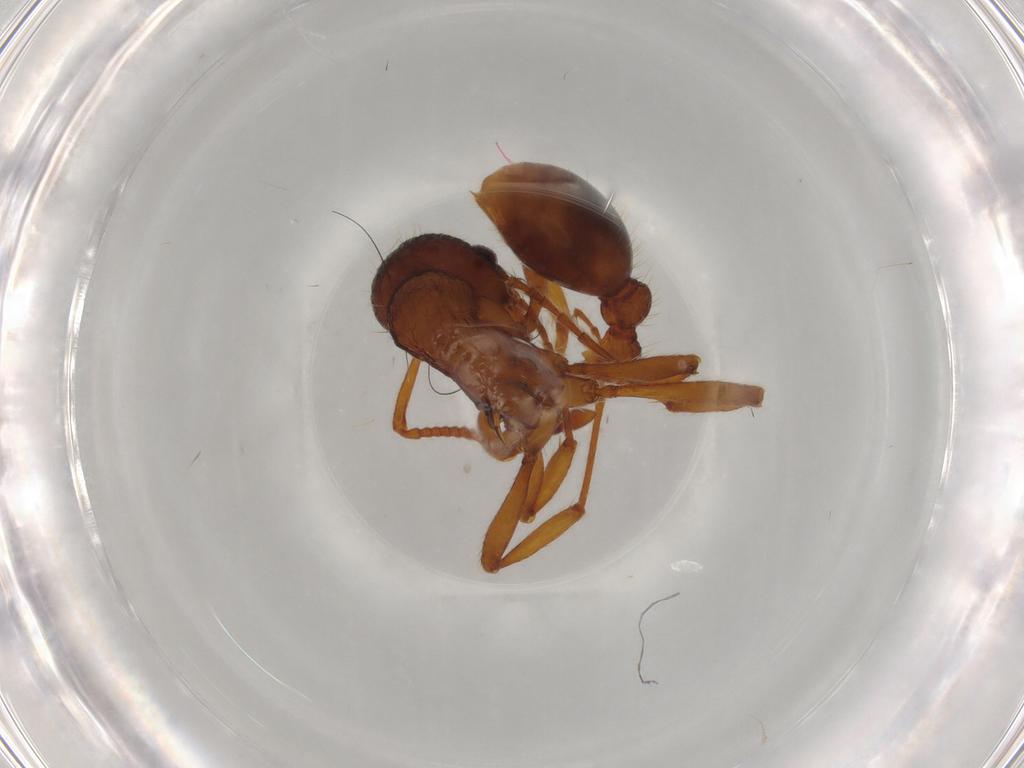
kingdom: Animalia
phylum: Arthropoda
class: Insecta
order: Hymenoptera
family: Formicidae
